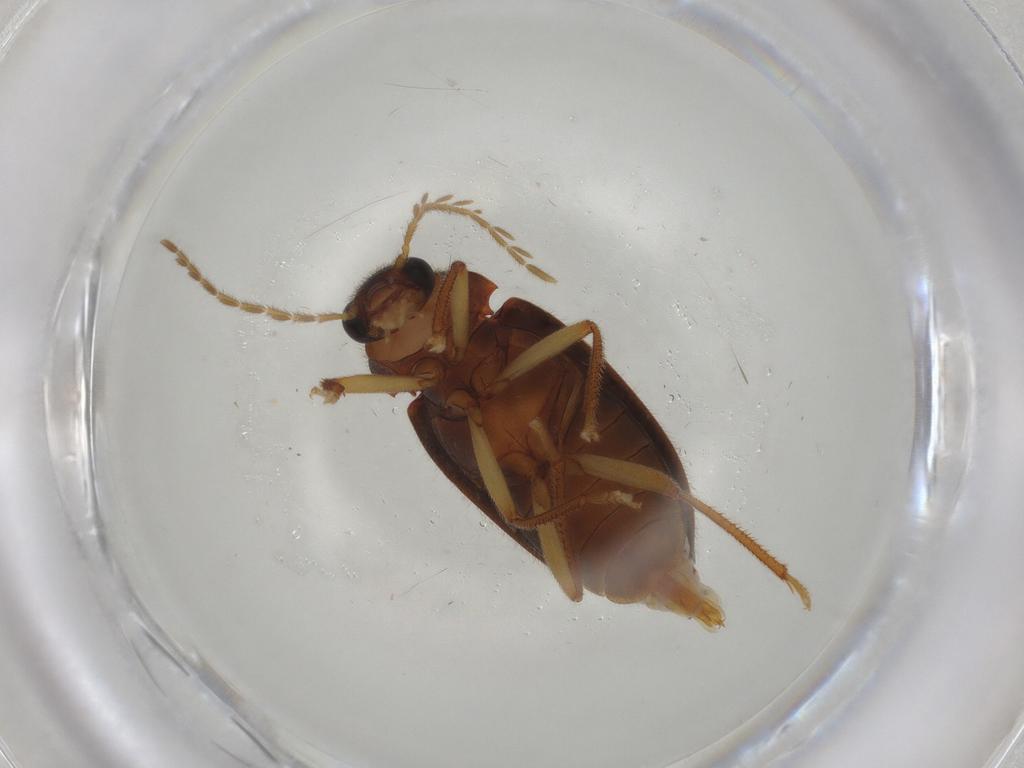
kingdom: Animalia
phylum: Arthropoda
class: Insecta
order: Coleoptera
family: Ptilodactylidae
